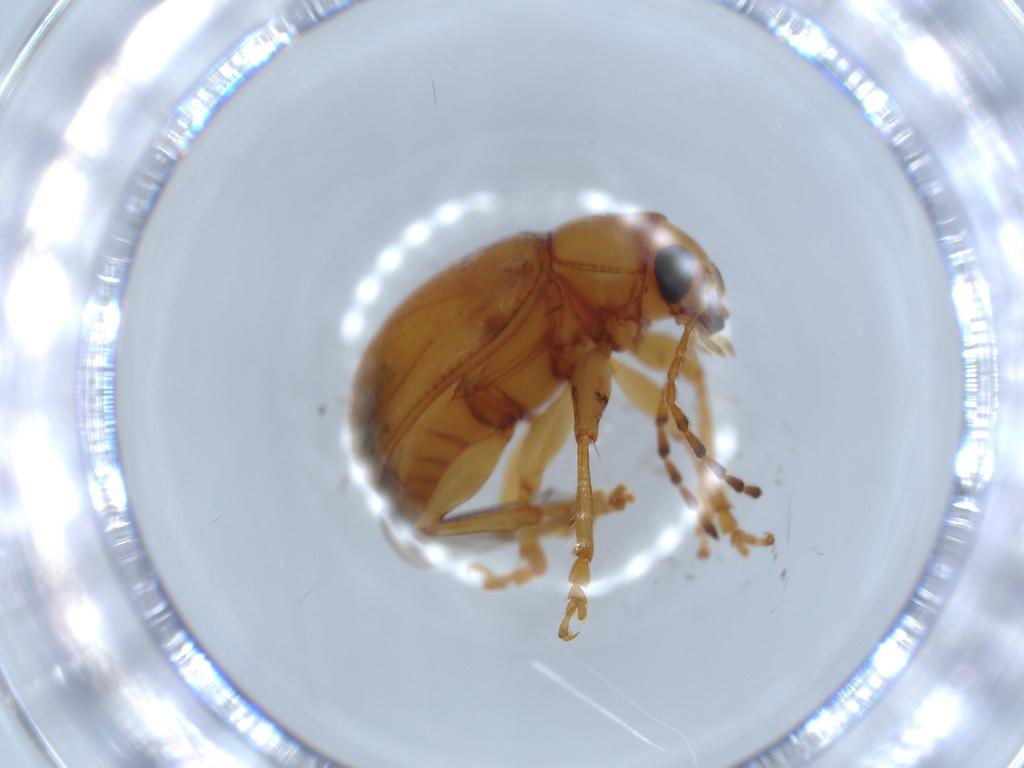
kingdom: Animalia
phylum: Arthropoda
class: Insecta
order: Coleoptera
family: Chrysomelidae
